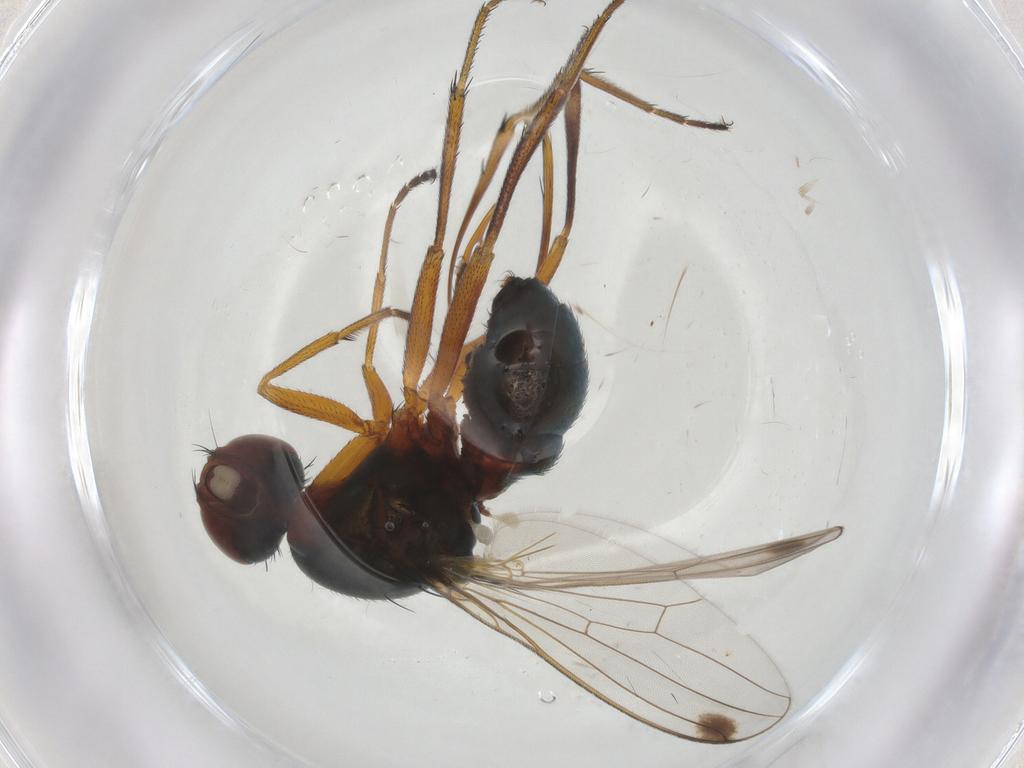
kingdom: Animalia
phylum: Arthropoda
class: Insecta
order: Diptera
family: Sepsidae
